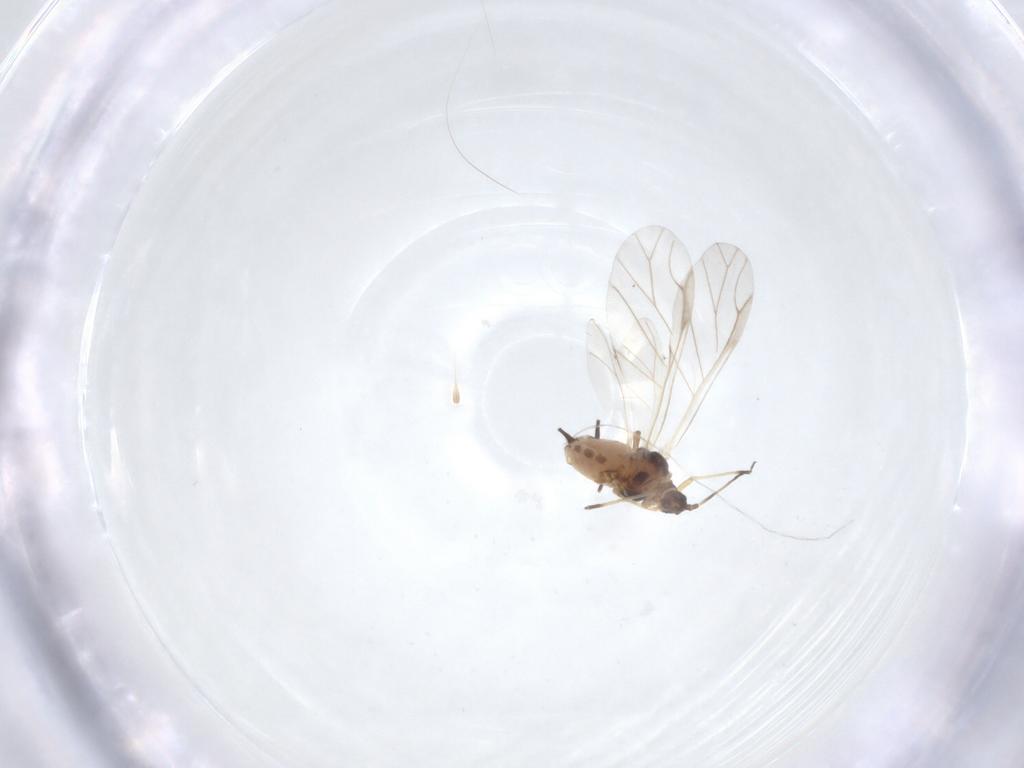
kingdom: Animalia
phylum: Arthropoda
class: Insecta
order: Hemiptera
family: Aphididae
